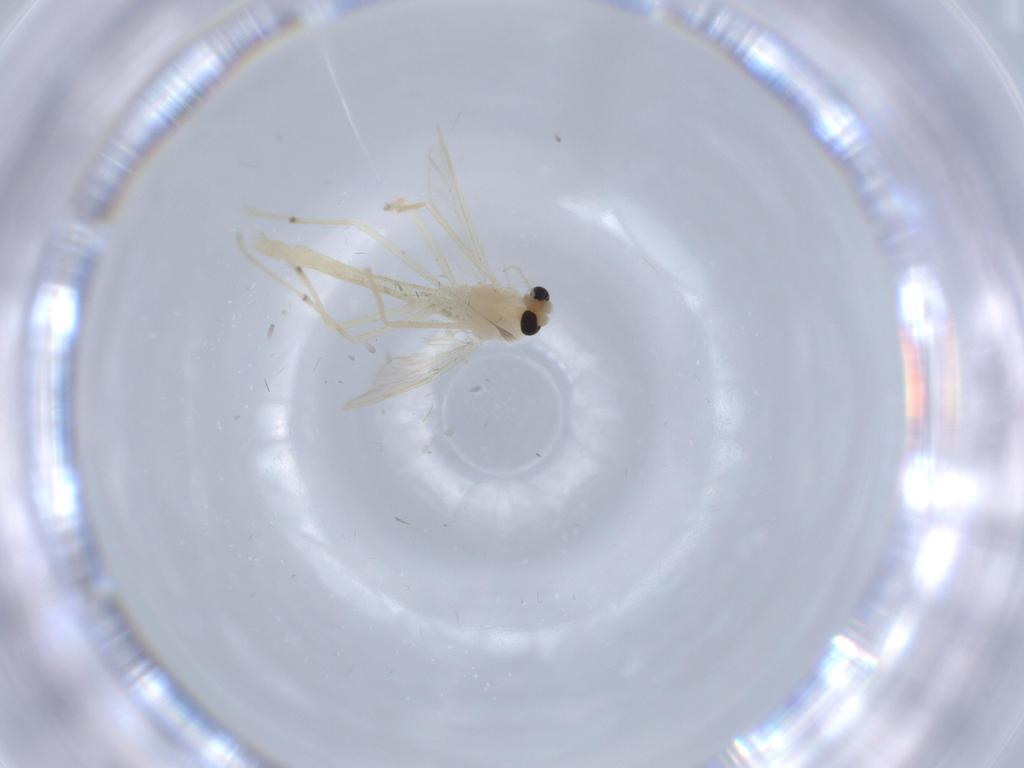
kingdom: Animalia
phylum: Arthropoda
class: Insecta
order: Diptera
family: Chironomidae
